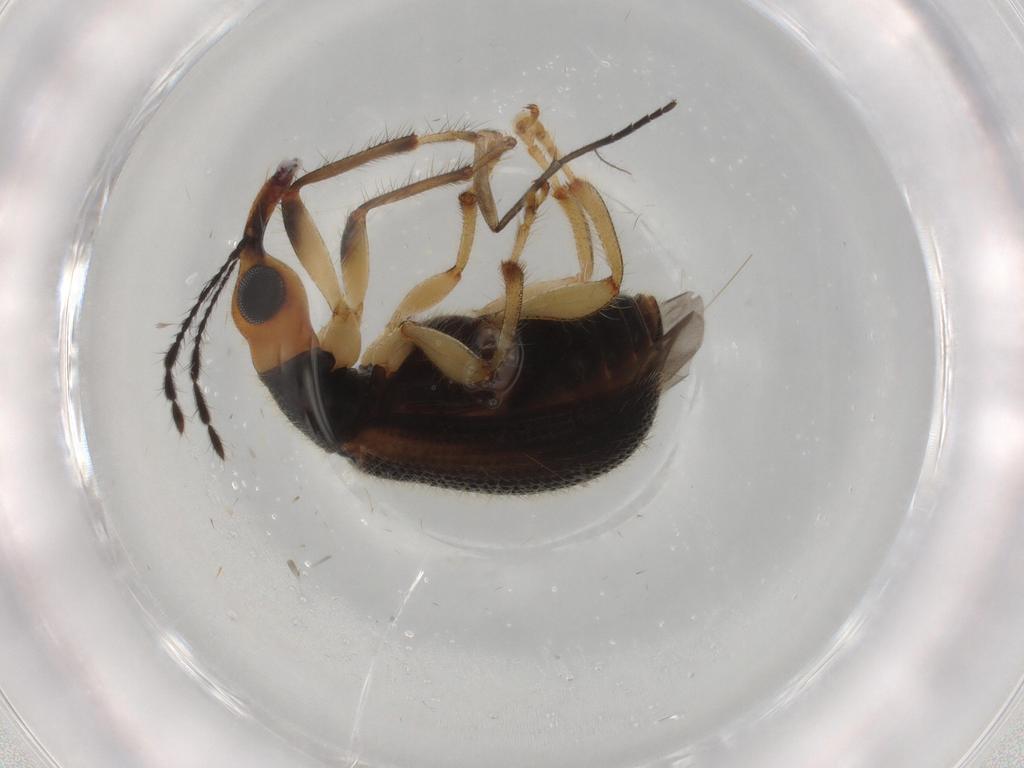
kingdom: Animalia
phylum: Arthropoda
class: Insecta
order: Coleoptera
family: Attelabidae
